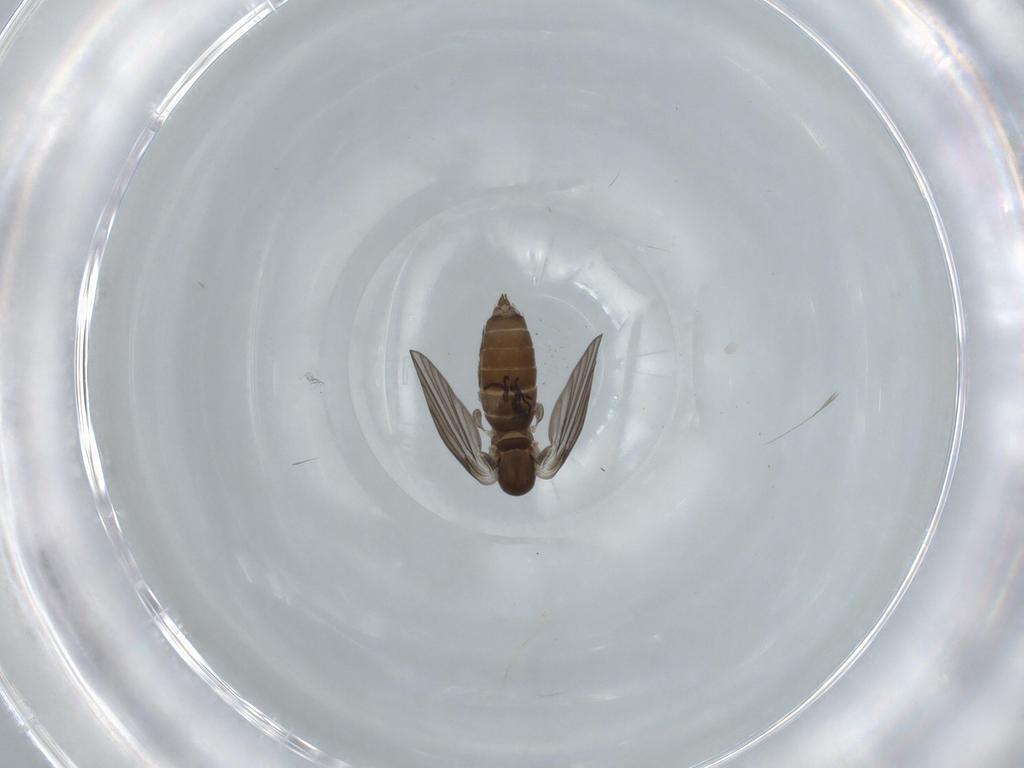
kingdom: Animalia
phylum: Arthropoda
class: Insecta
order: Diptera
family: Psychodidae
